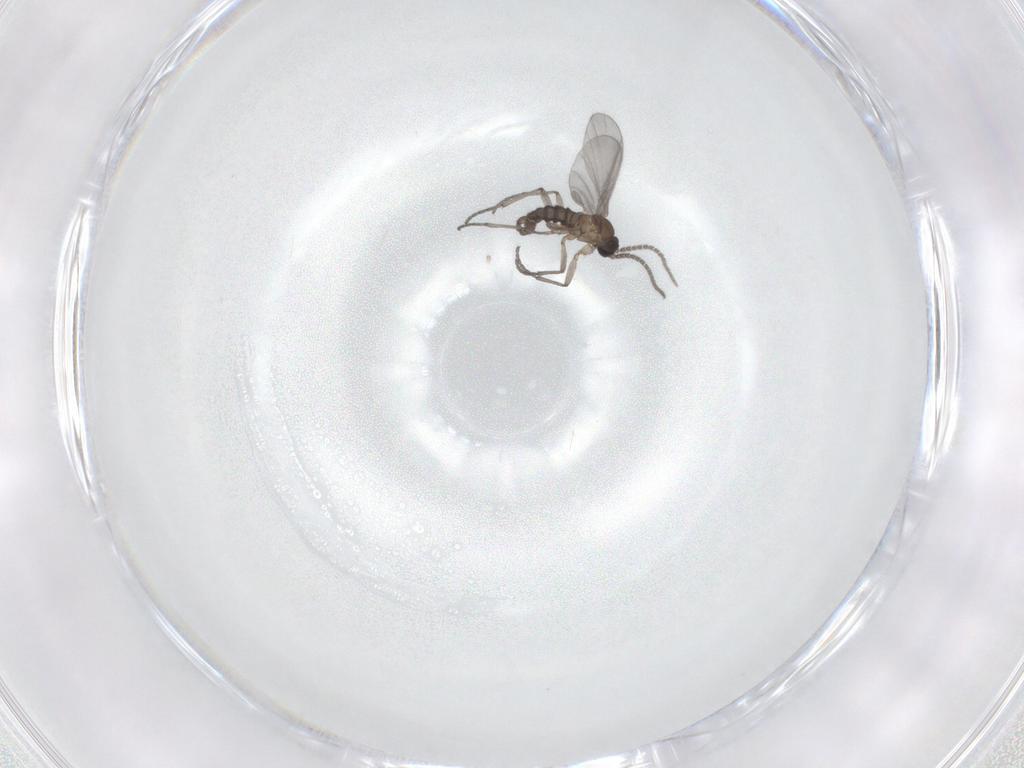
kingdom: Animalia
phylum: Arthropoda
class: Insecta
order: Diptera
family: Sciaridae
